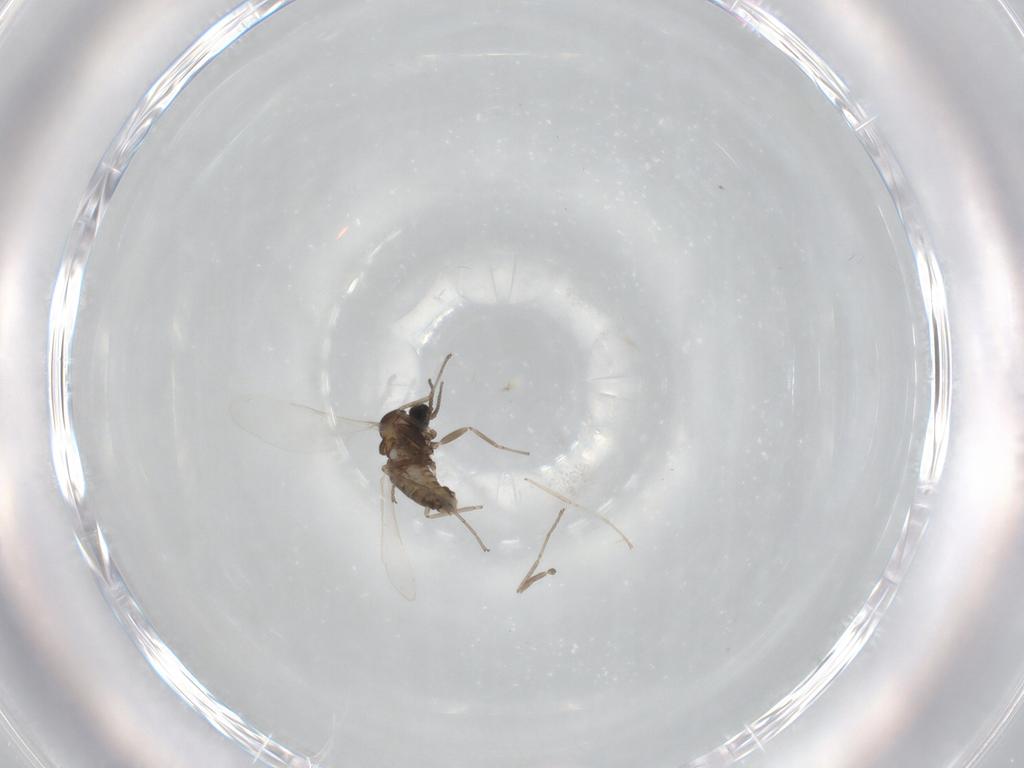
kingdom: Animalia
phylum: Arthropoda
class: Insecta
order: Diptera
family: Cecidomyiidae
